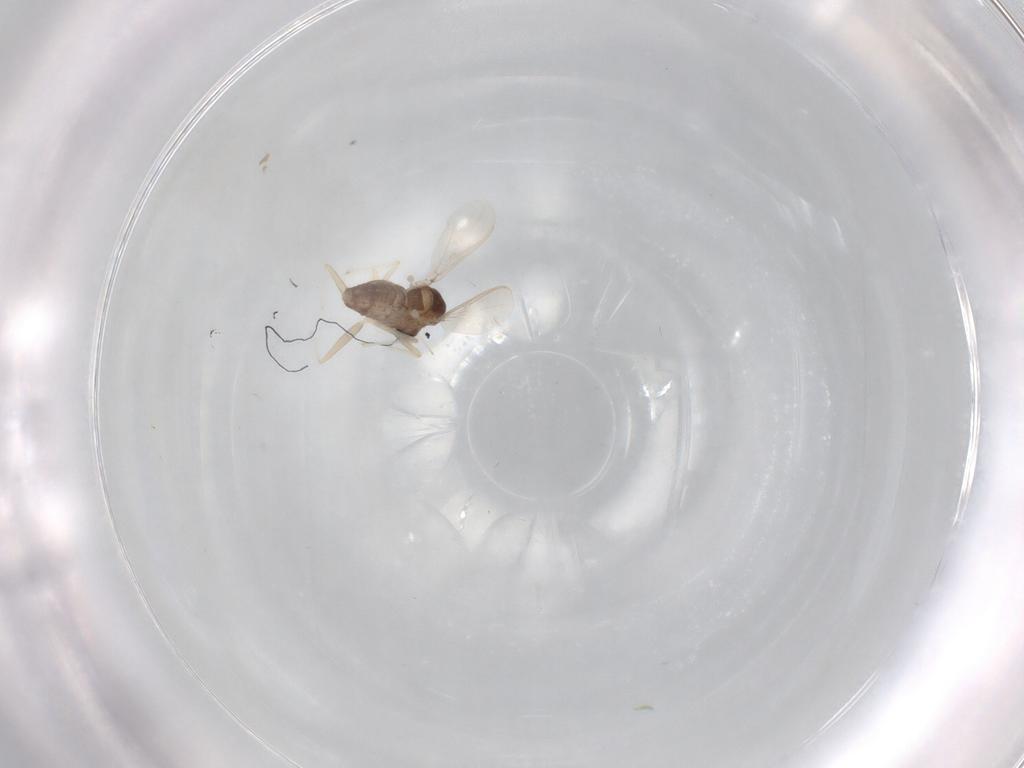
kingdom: Animalia
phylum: Arthropoda
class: Insecta
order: Diptera
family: Chironomidae
